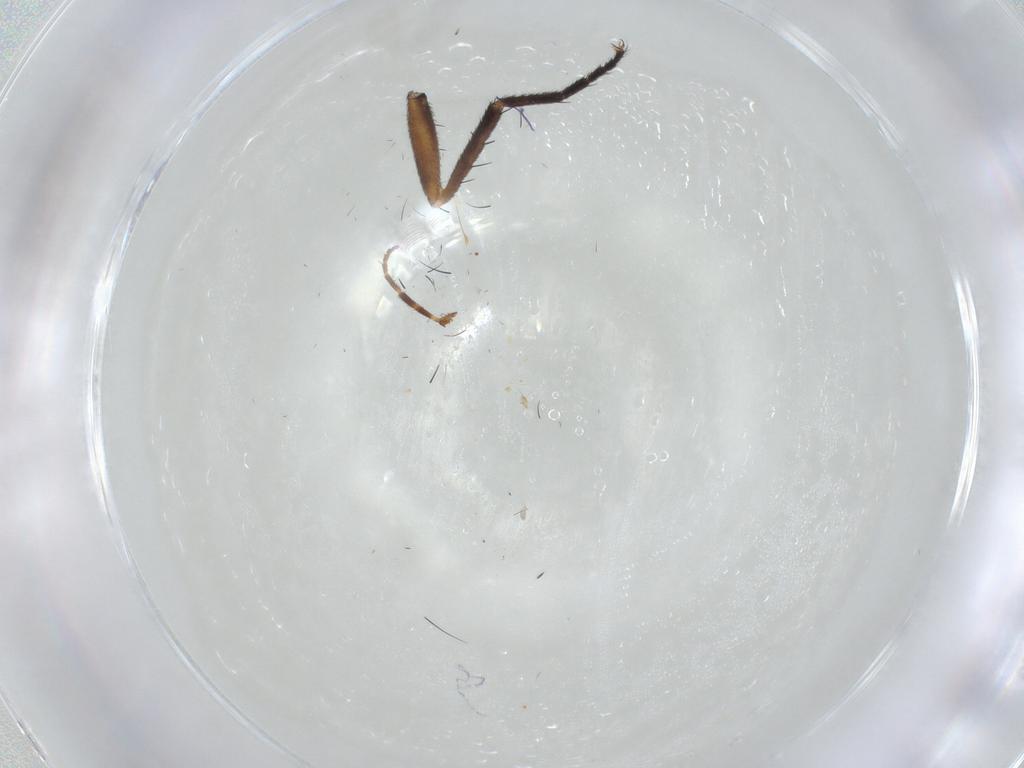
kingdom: Animalia
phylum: Arthropoda
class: Insecta
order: Diptera
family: Therevidae
